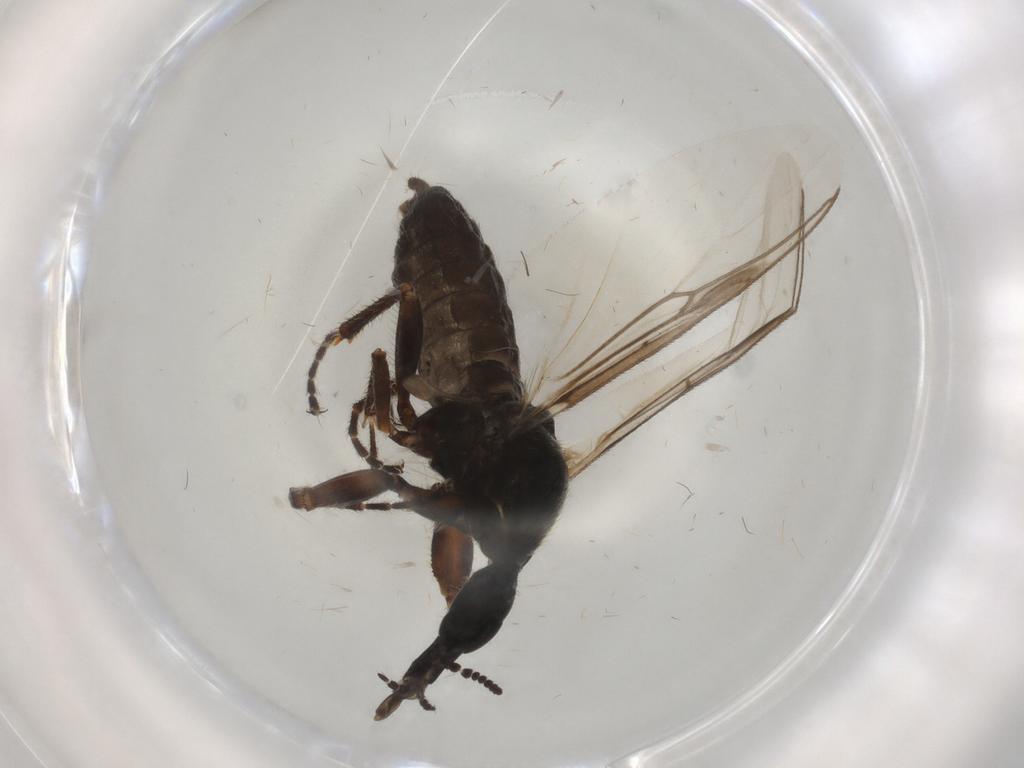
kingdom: Animalia
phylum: Arthropoda
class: Insecta
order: Diptera
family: Bibionidae
